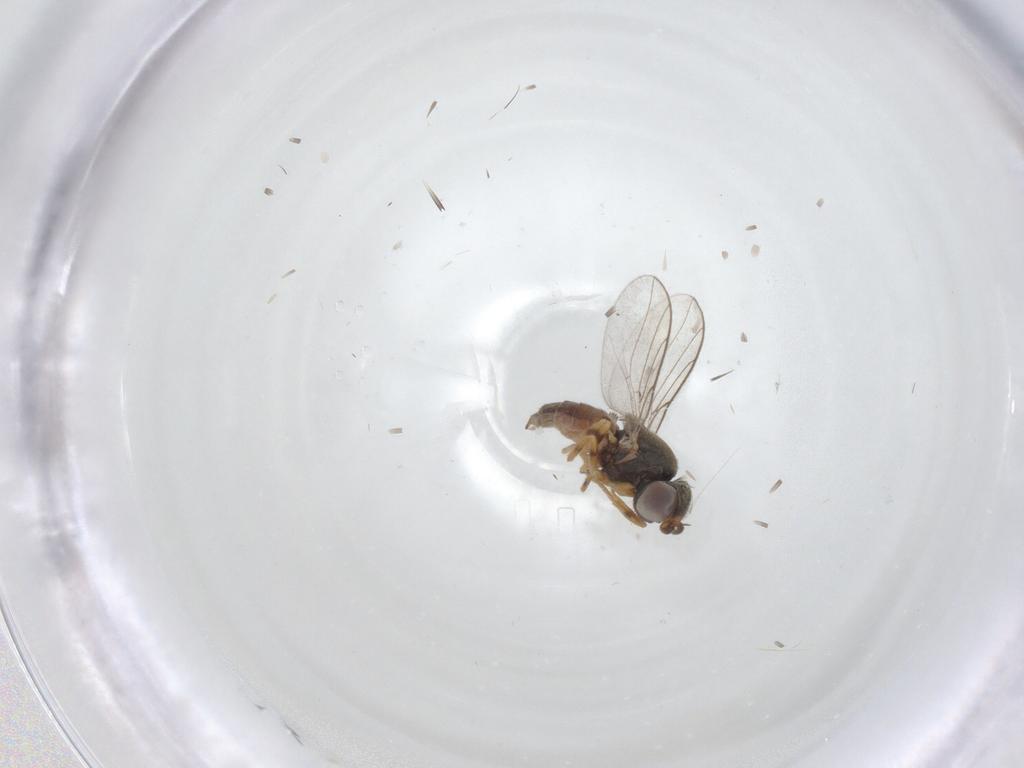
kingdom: Animalia
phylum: Arthropoda
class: Insecta
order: Diptera
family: Chloropidae
